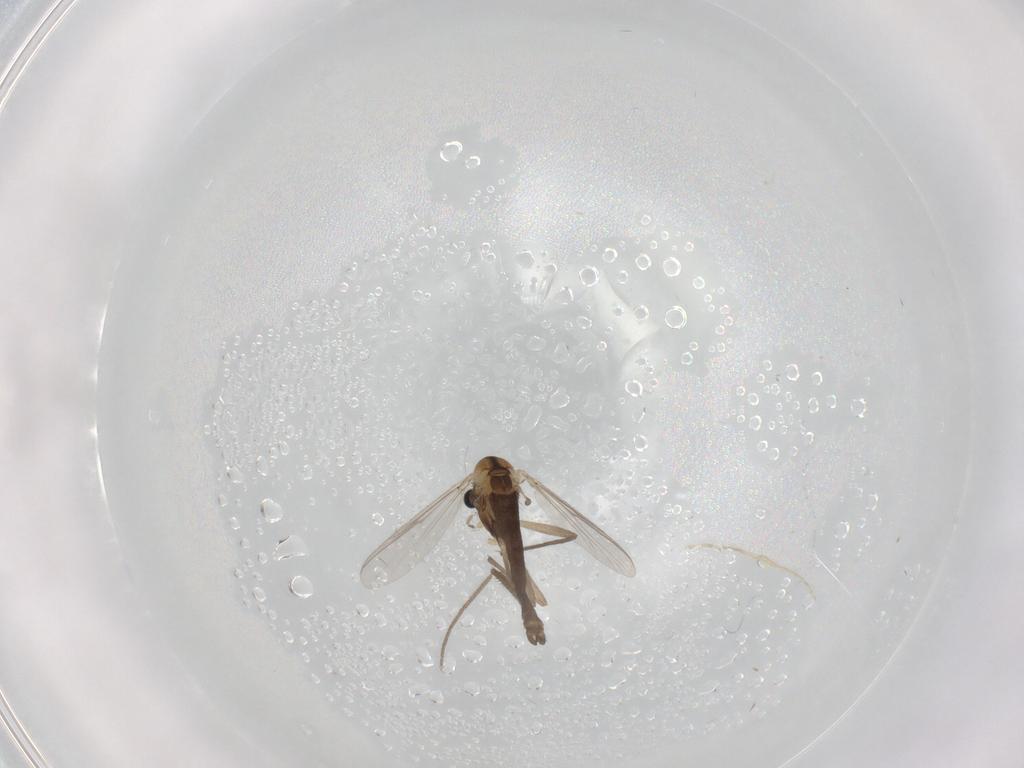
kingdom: Animalia
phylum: Arthropoda
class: Insecta
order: Diptera
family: Chironomidae
